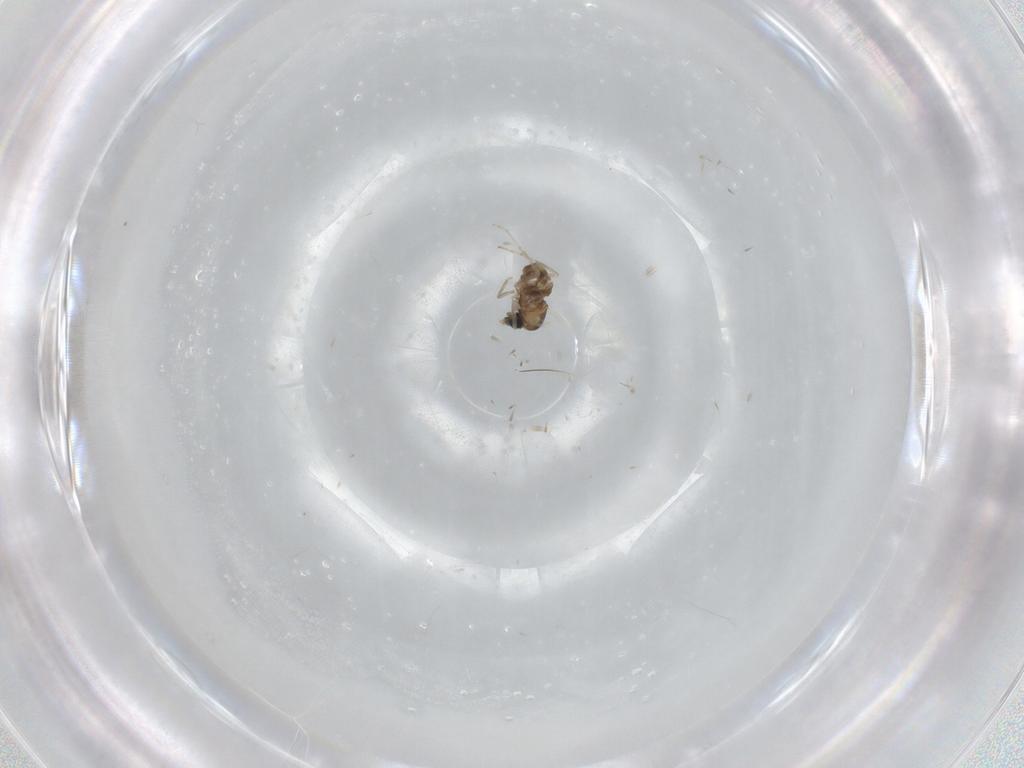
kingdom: Animalia
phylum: Arthropoda
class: Insecta
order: Diptera
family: Cecidomyiidae
